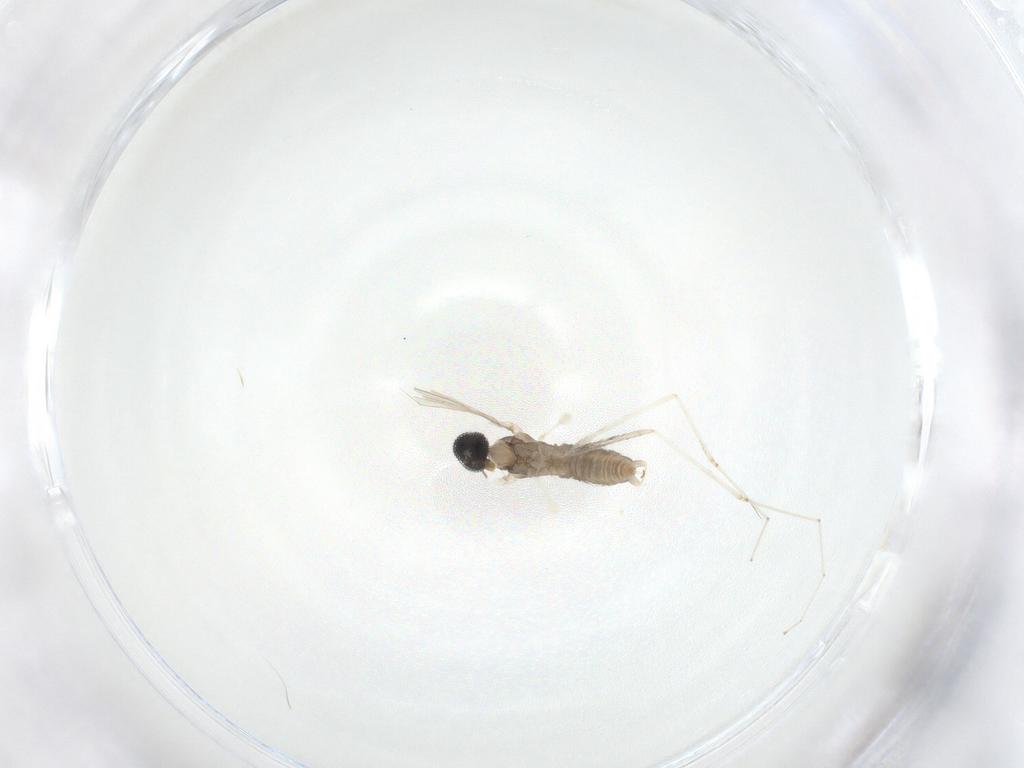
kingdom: Animalia
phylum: Arthropoda
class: Insecta
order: Diptera
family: Cecidomyiidae
